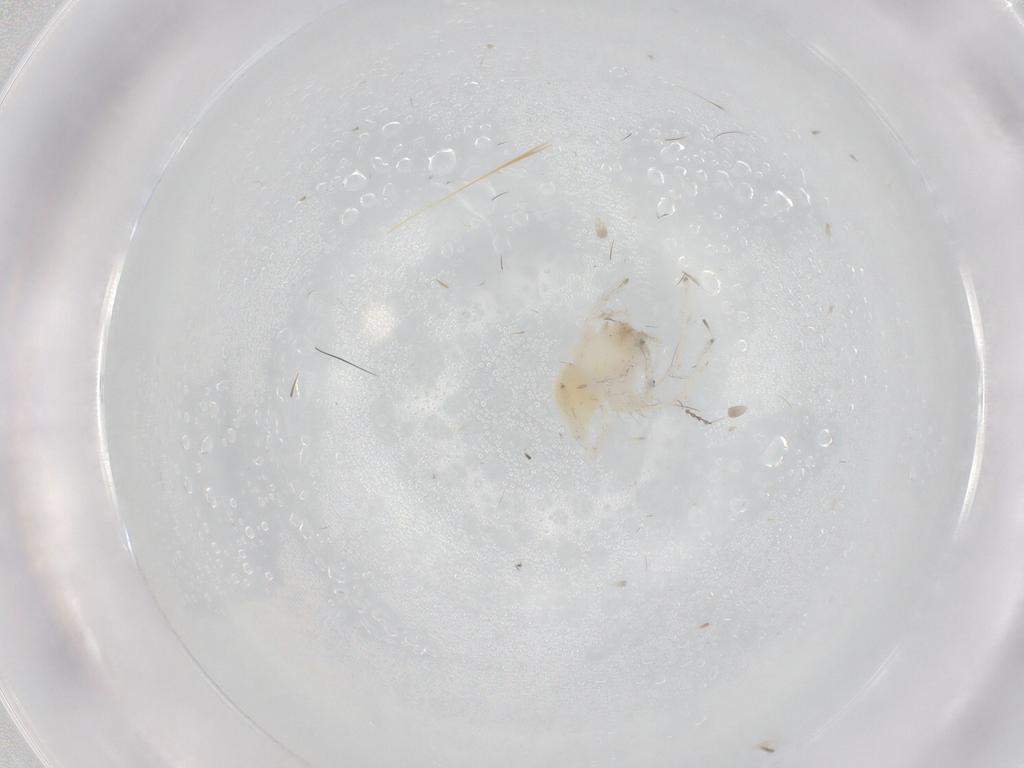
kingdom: Animalia
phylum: Arthropoda
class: Arachnida
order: Araneae
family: Anyphaenidae
